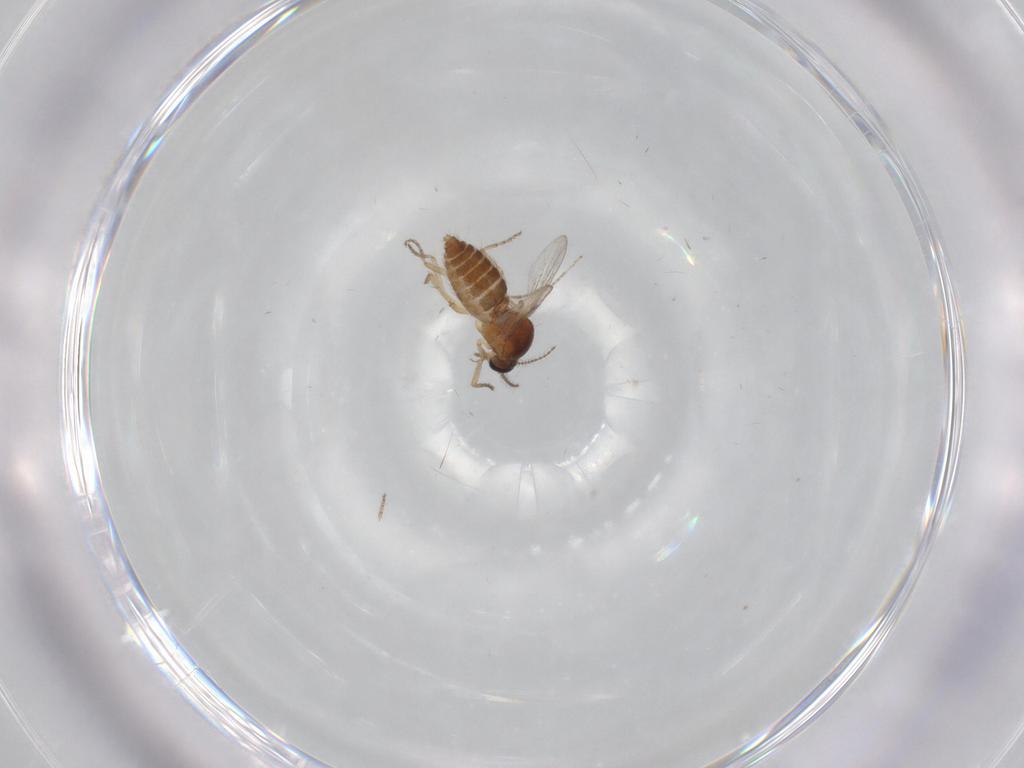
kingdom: Animalia
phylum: Arthropoda
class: Insecta
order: Diptera
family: Ceratopogonidae
